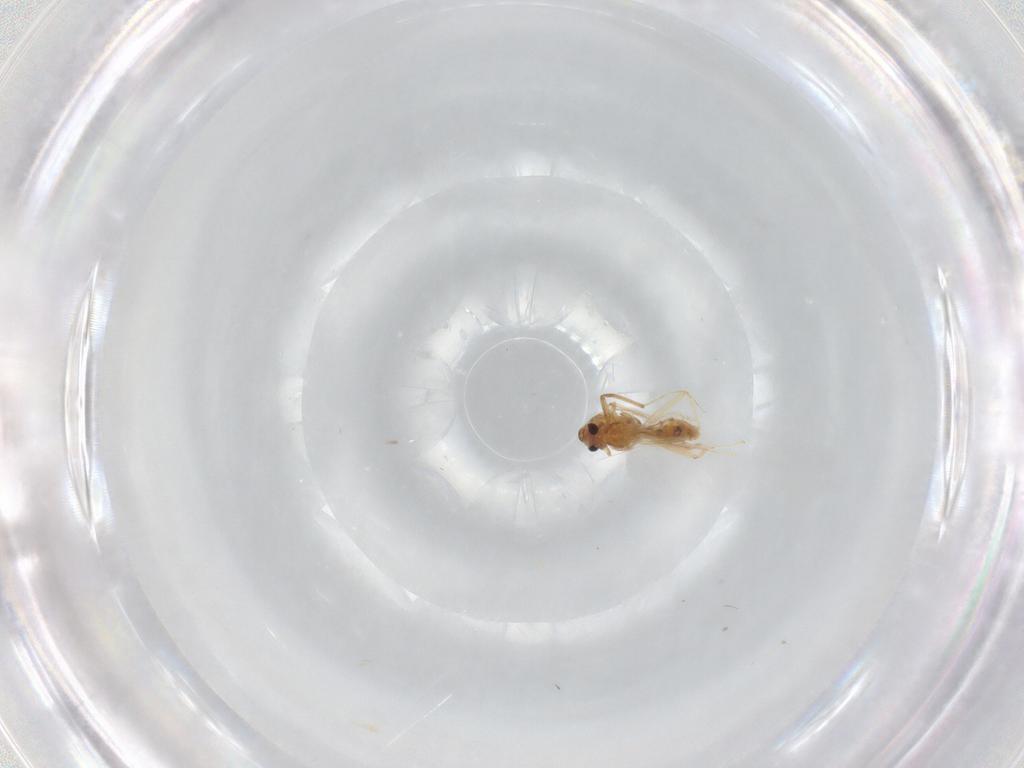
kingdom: Animalia
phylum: Arthropoda
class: Insecta
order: Diptera
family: Chironomidae
